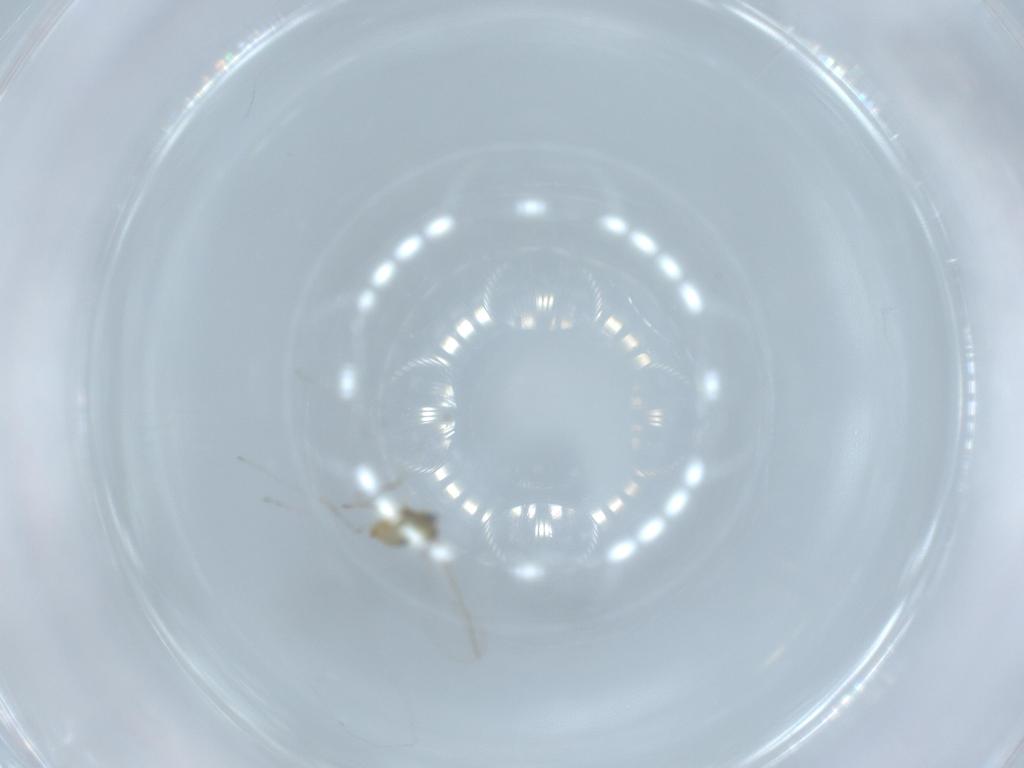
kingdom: Animalia
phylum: Arthropoda
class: Insecta
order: Diptera
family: Cecidomyiidae
